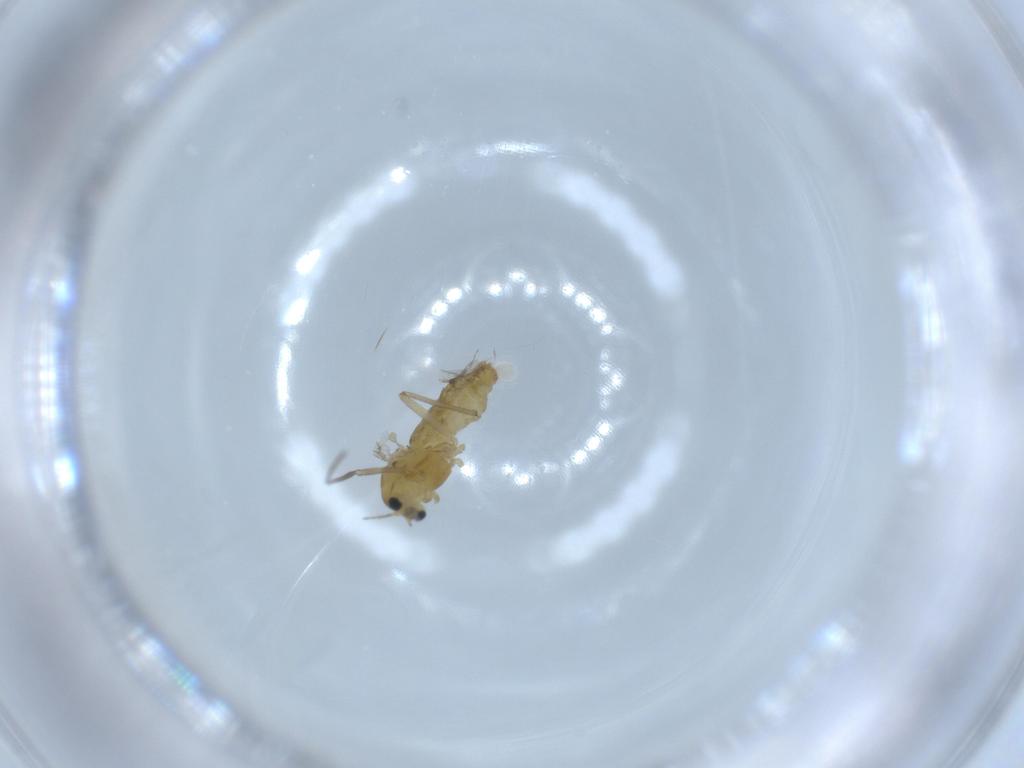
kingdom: Animalia
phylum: Arthropoda
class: Insecta
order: Diptera
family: Chironomidae
